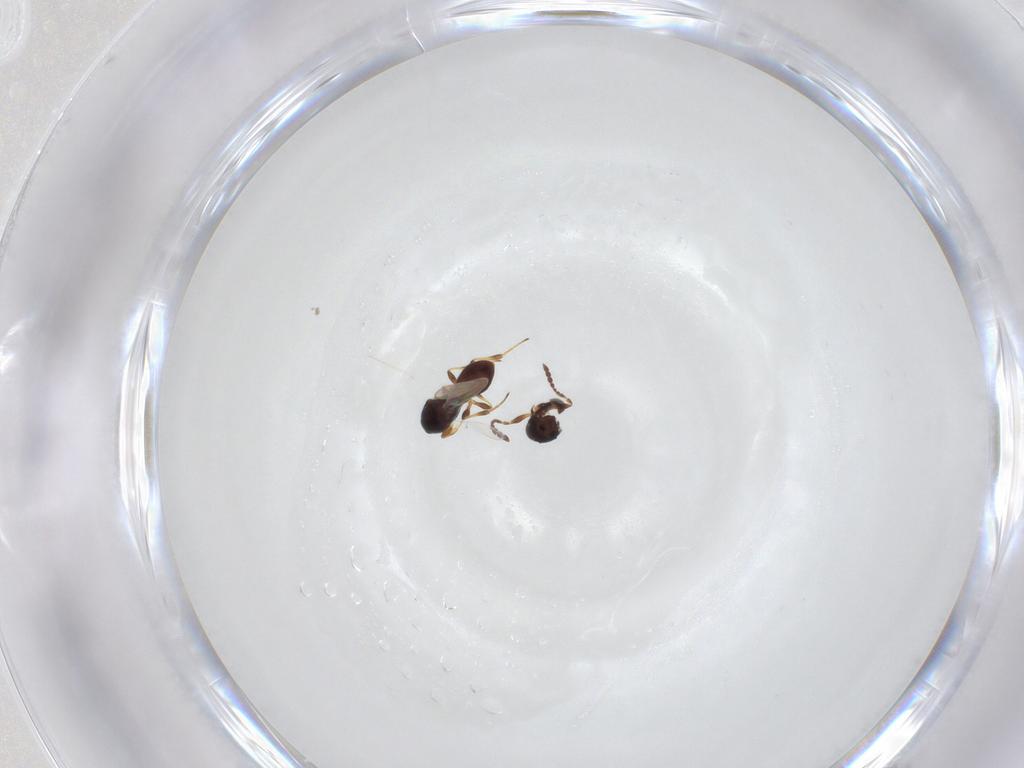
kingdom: Animalia
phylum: Arthropoda
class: Insecta
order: Hymenoptera
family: Platygastridae
